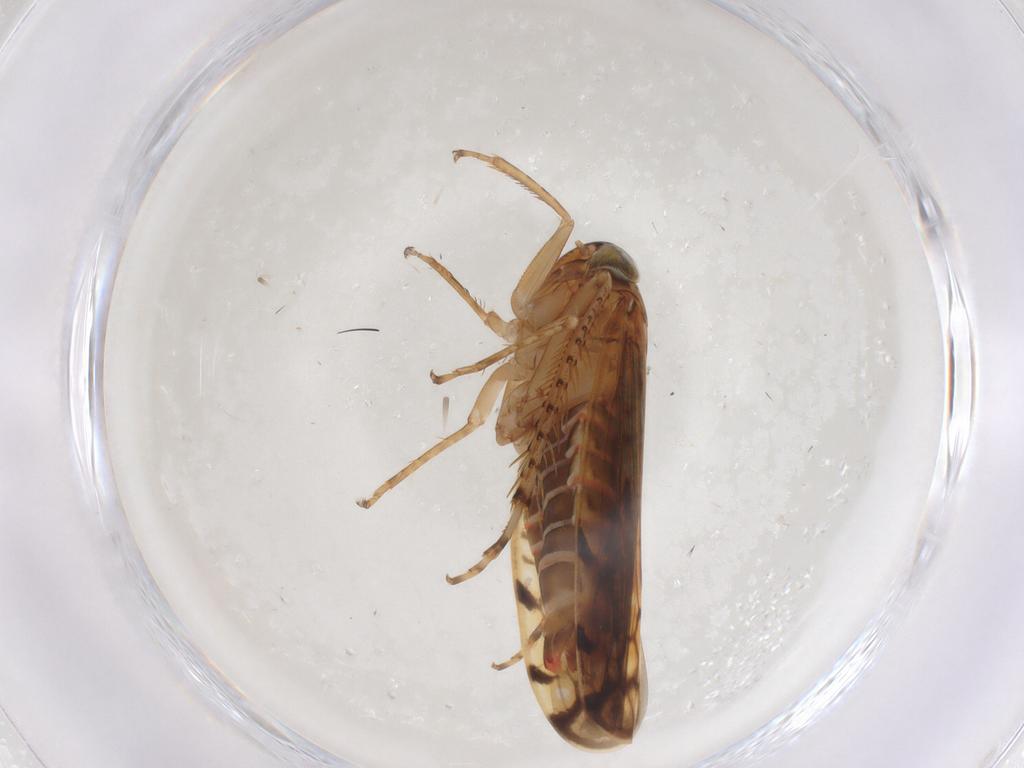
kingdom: Animalia
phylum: Arthropoda
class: Insecta
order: Hemiptera
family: Cicadellidae
